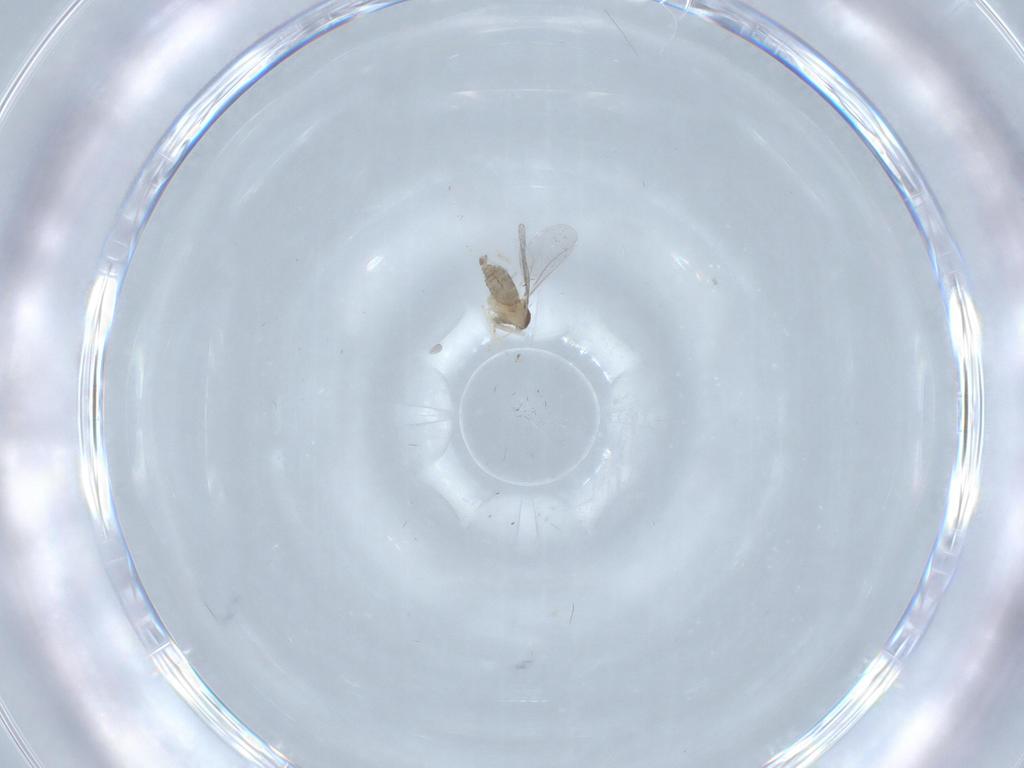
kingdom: Animalia
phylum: Arthropoda
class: Insecta
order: Diptera
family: Cecidomyiidae
